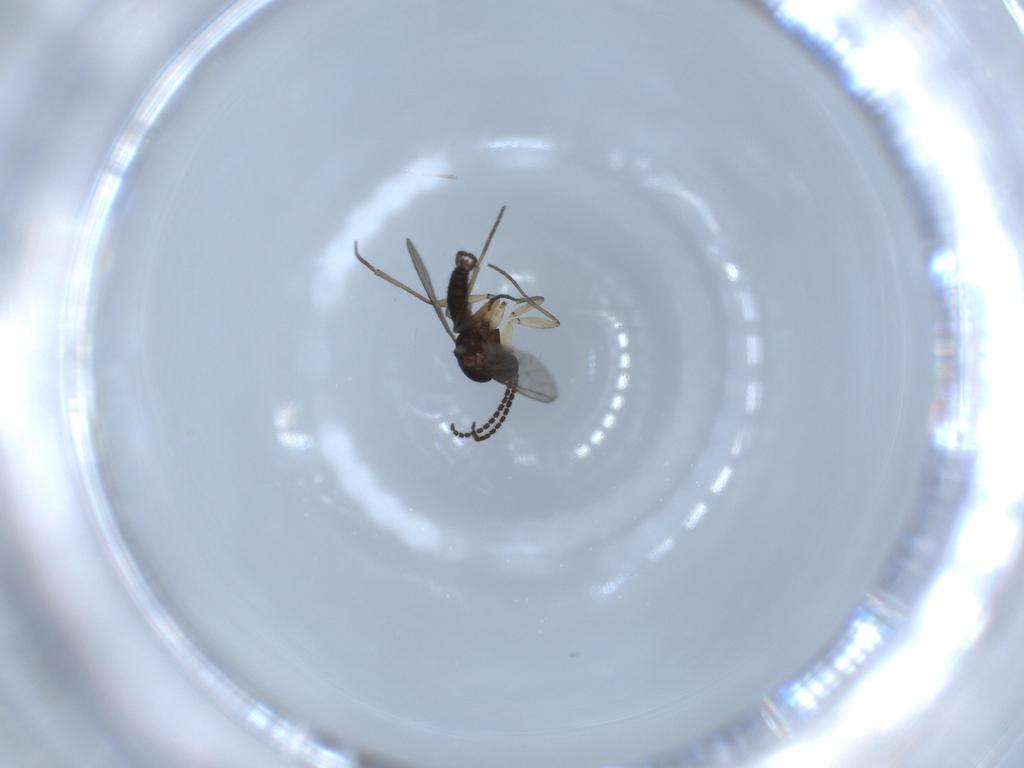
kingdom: Animalia
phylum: Arthropoda
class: Insecta
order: Diptera
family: Sciaridae
